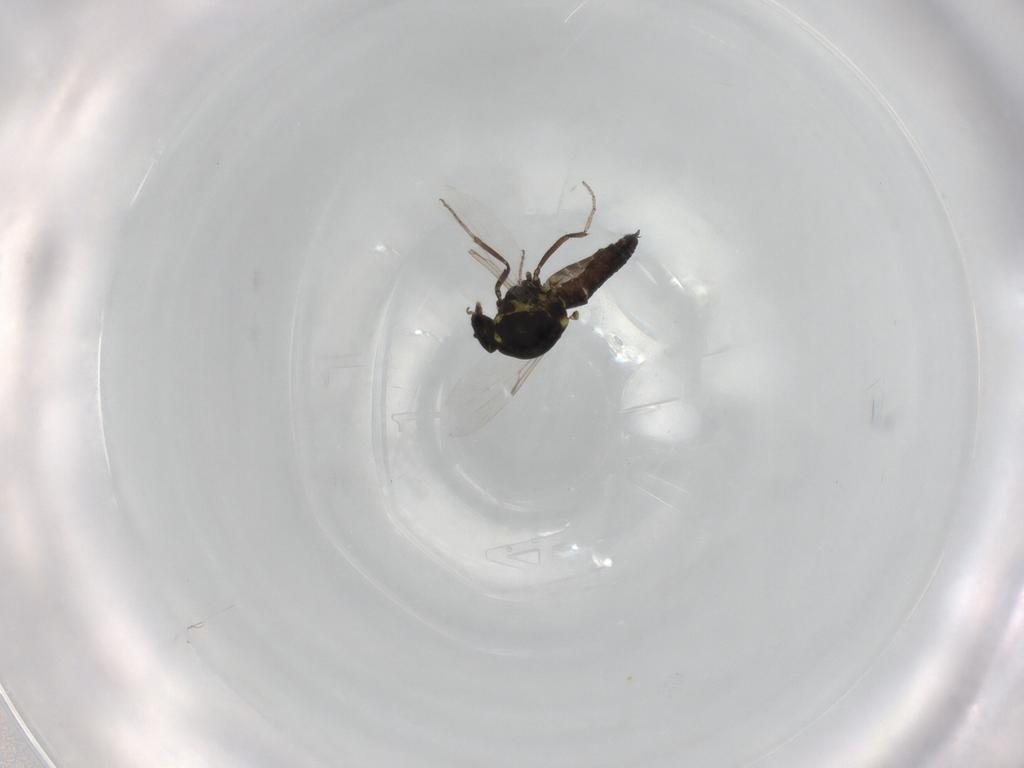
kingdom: Animalia
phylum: Arthropoda
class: Insecta
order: Diptera
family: Ceratopogonidae
